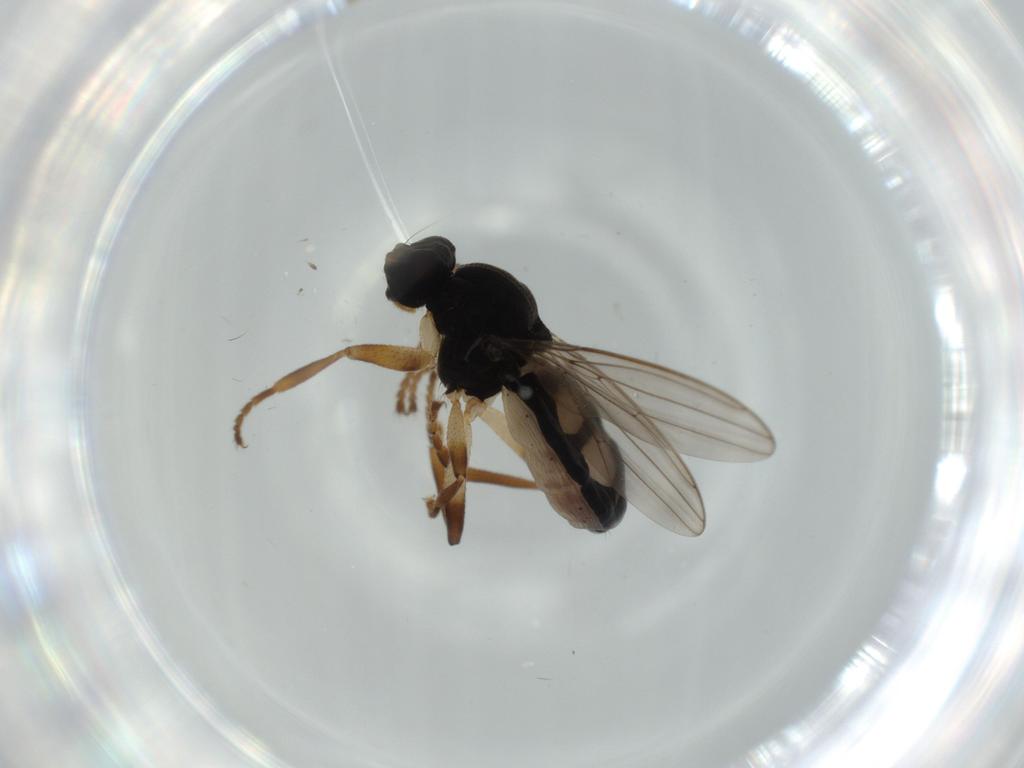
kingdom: Animalia
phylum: Arthropoda
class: Insecta
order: Diptera
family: Sphaeroceridae
